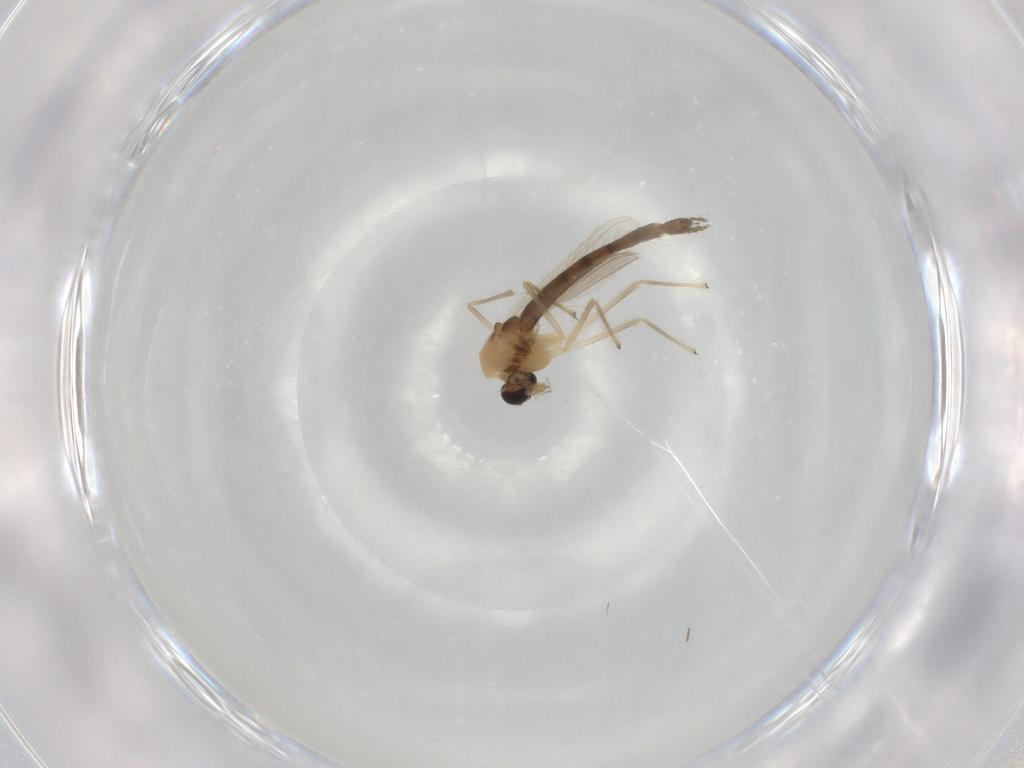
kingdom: Animalia
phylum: Arthropoda
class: Insecta
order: Diptera
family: Chironomidae
